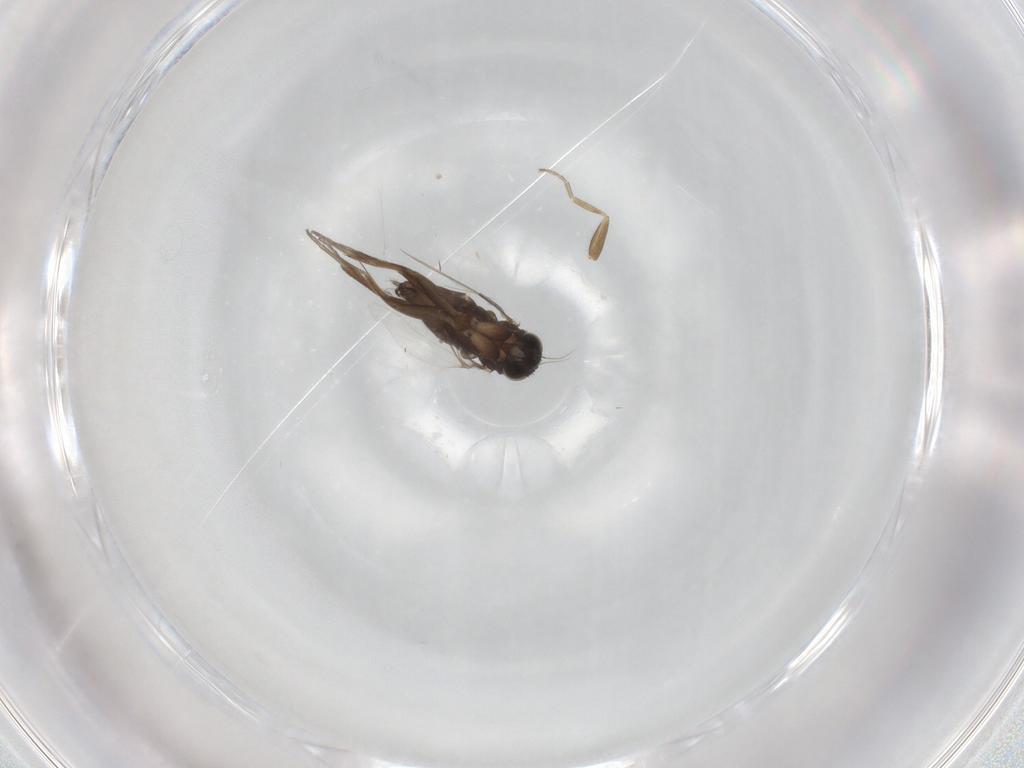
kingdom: Animalia
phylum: Arthropoda
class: Insecta
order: Diptera
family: Phoridae
